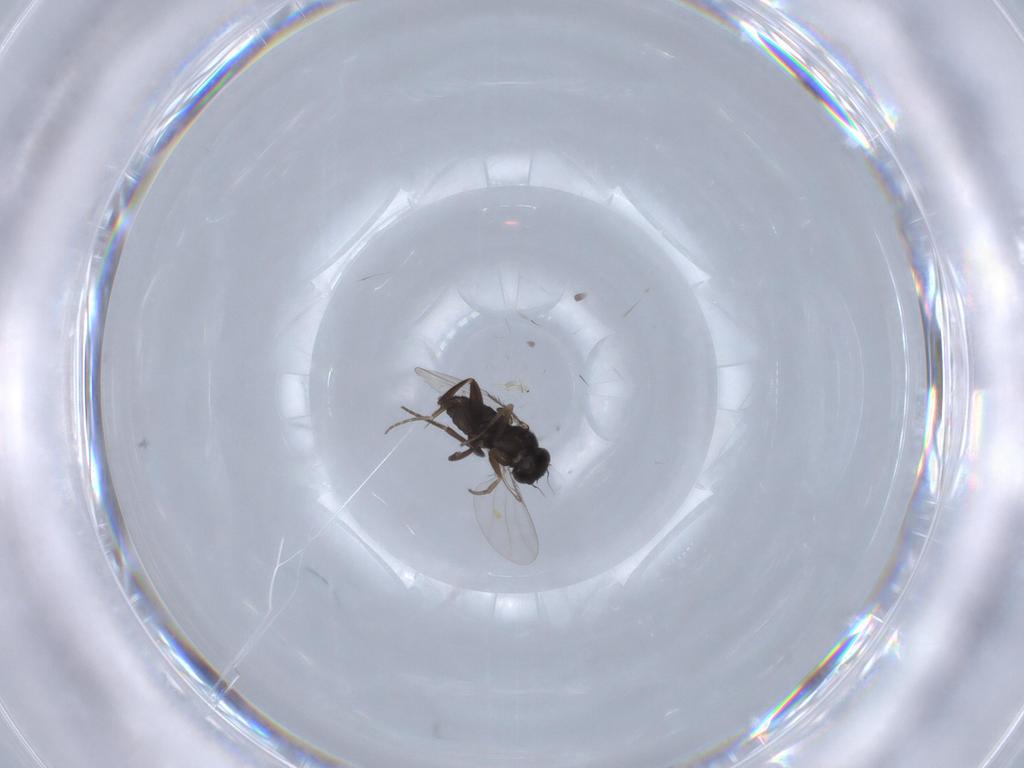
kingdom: Animalia
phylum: Arthropoda
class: Insecta
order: Diptera
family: Phoridae
